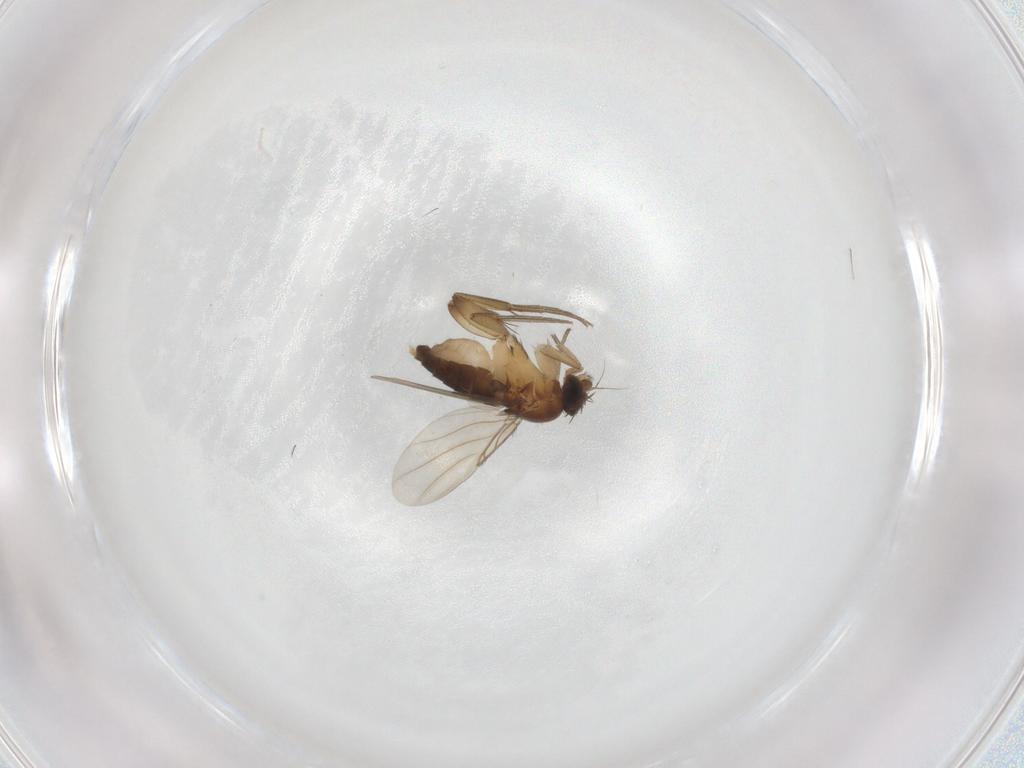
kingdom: Animalia
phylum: Arthropoda
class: Insecta
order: Diptera
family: Phoridae
